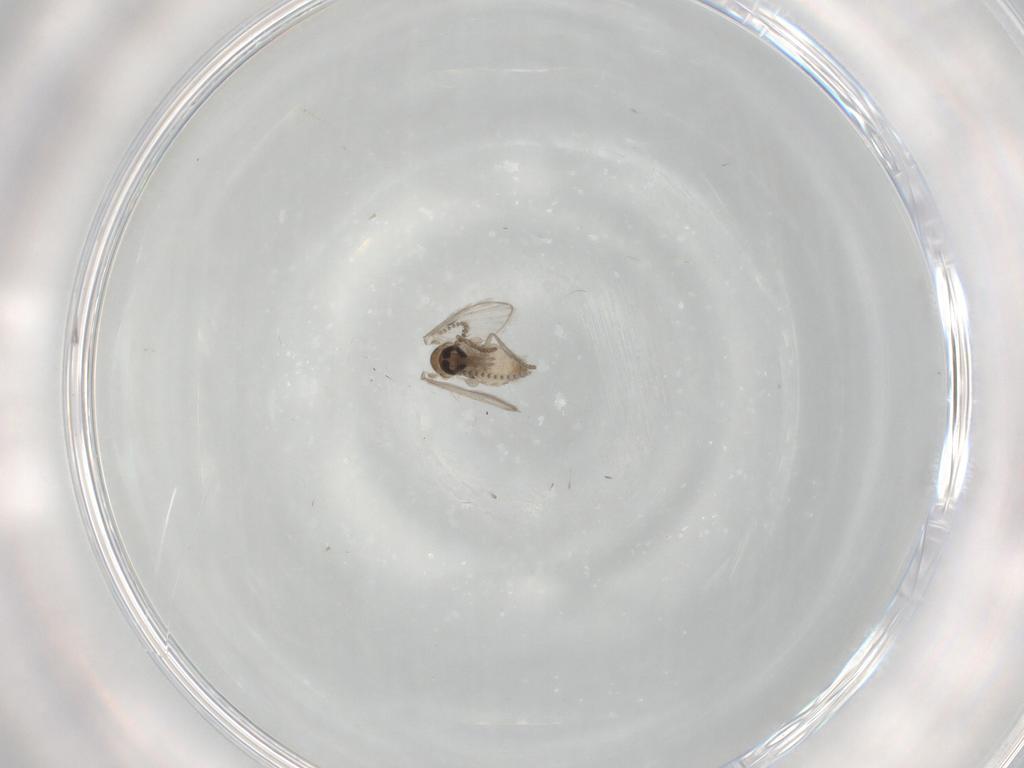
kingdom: Animalia
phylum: Arthropoda
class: Insecta
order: Diptera
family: Psychodidae
